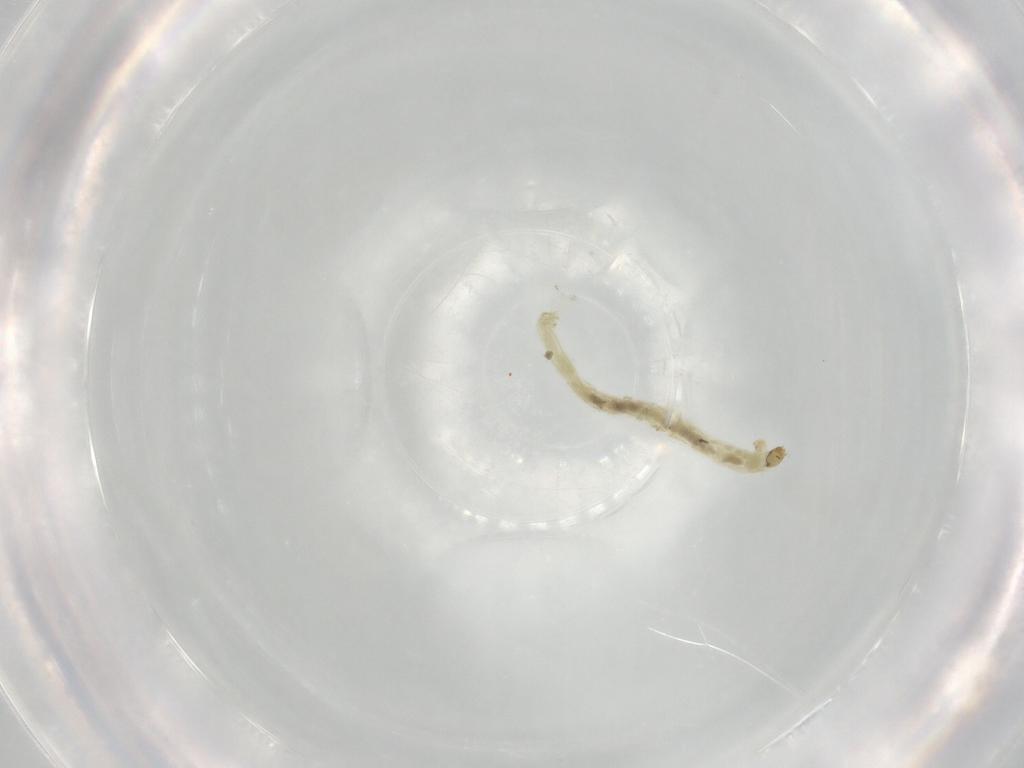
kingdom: Animalia
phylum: Arthropoda
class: Insecta
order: Diptera
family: Chironomidae
